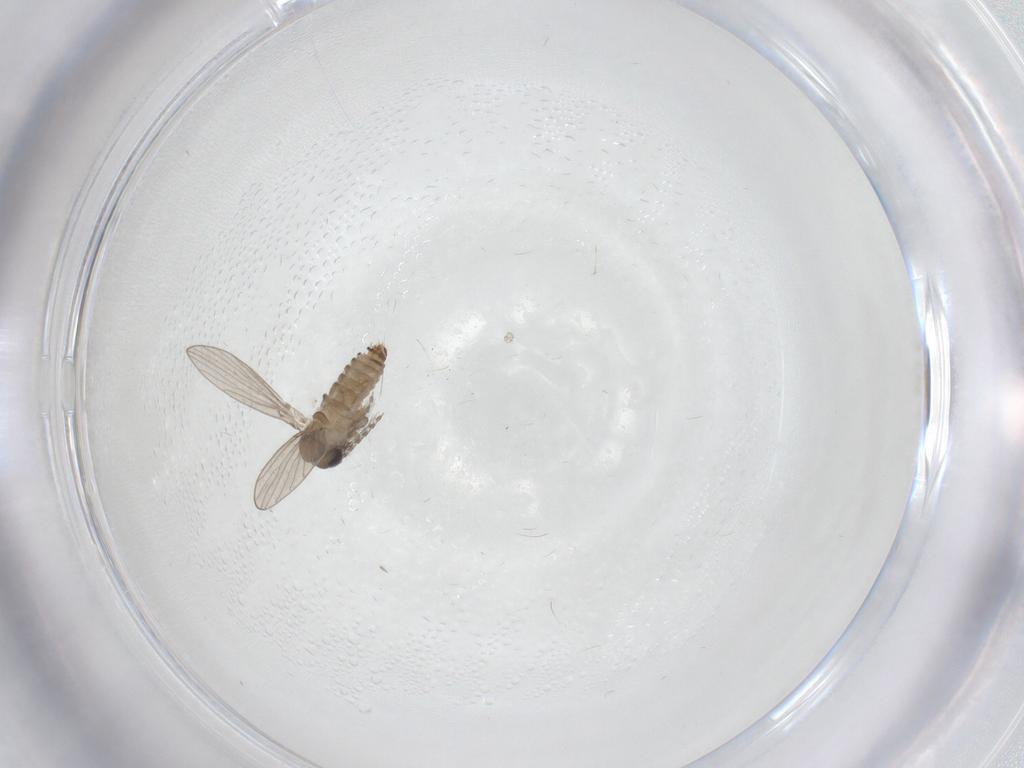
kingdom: Animalia
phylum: Arthropoda
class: Insecta
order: Diptera
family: Psychodidae
